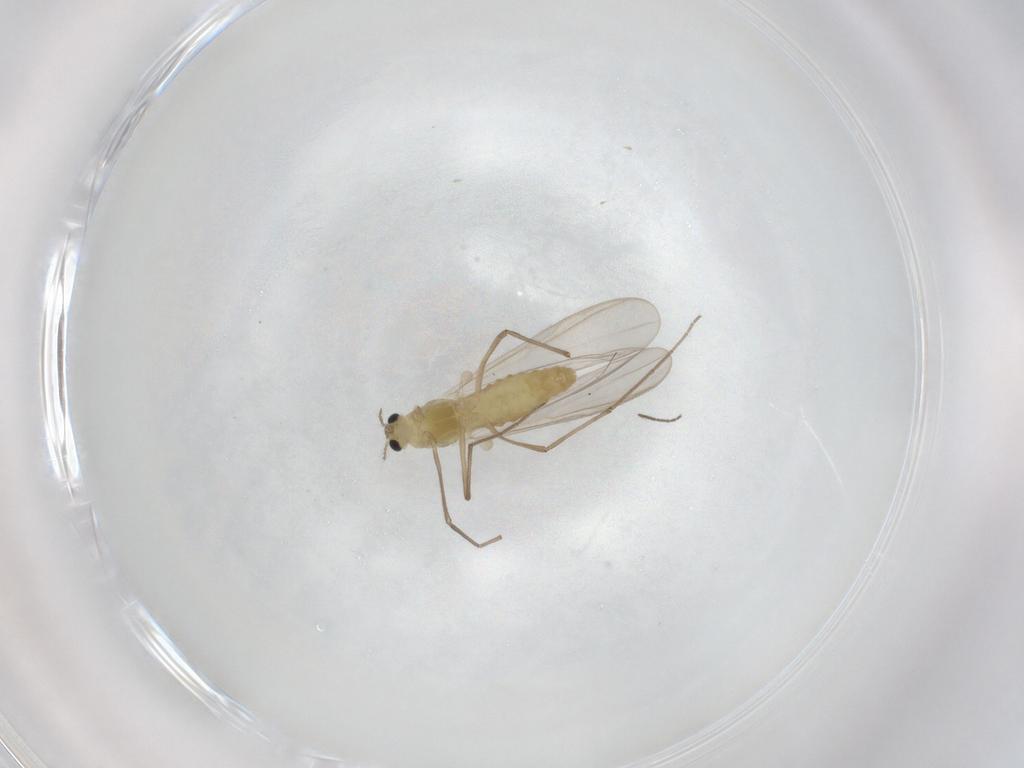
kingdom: Animalia
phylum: Arthropoda
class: Insecta
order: Diptera
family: Chironomidae
